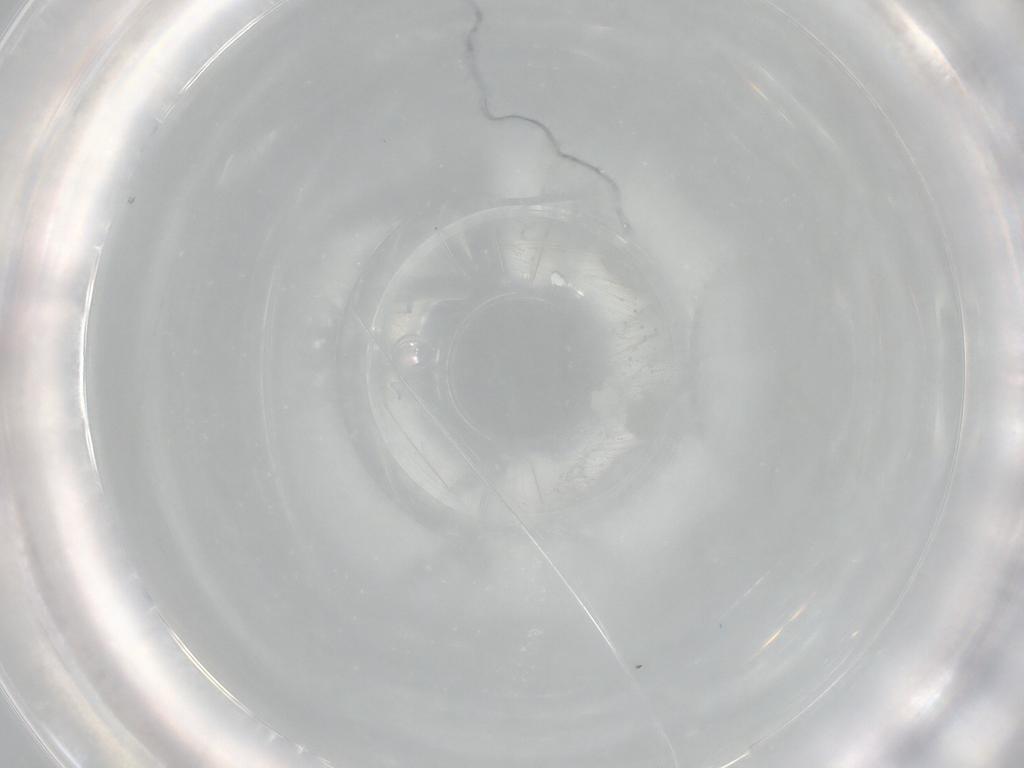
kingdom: Animalia
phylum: Arthropoda
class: Insecta
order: Diptera
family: Cecidomyiidae
